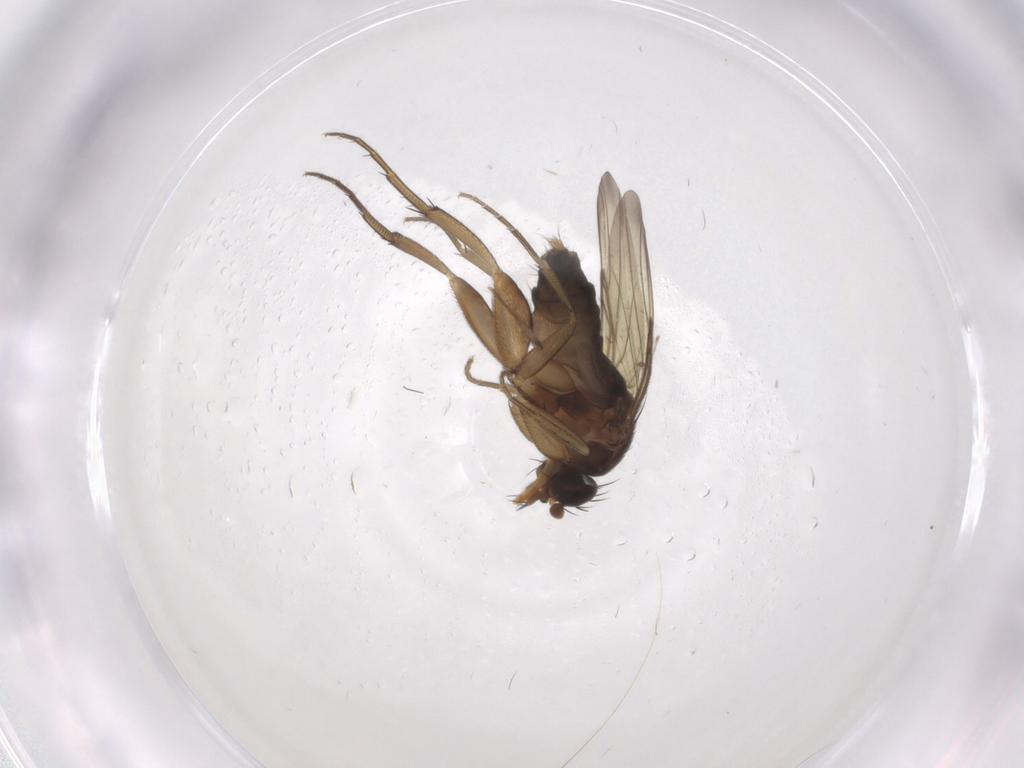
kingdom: Animalia
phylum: Arthropoda
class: Insecta
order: Diptera
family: Phoridae
